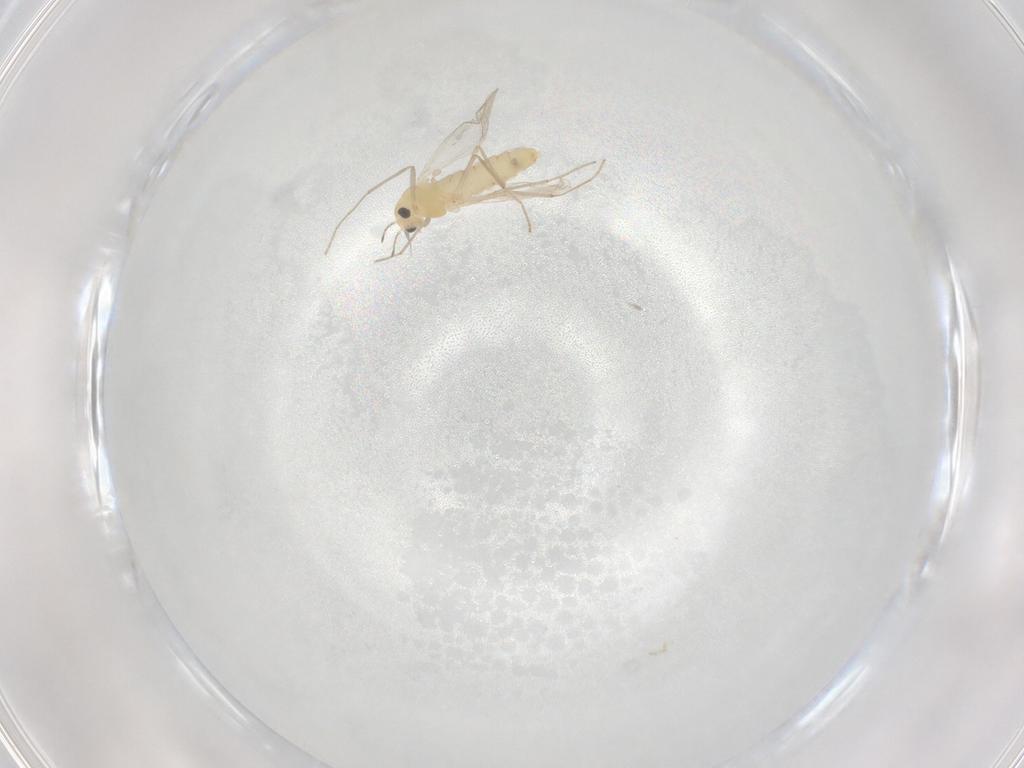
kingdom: Animalia
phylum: Arthropoda
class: Insecta
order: Diptera
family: Chironomidae
